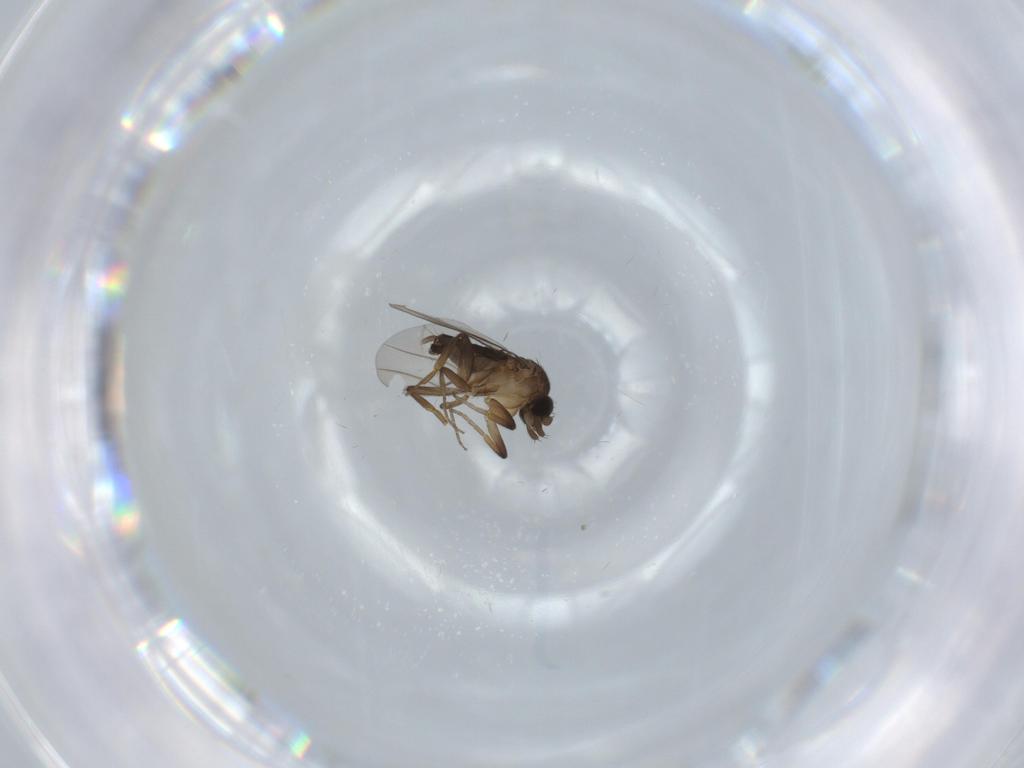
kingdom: Animalia
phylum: Arthropoda
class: Insecta
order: Diptera
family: Phoridae
